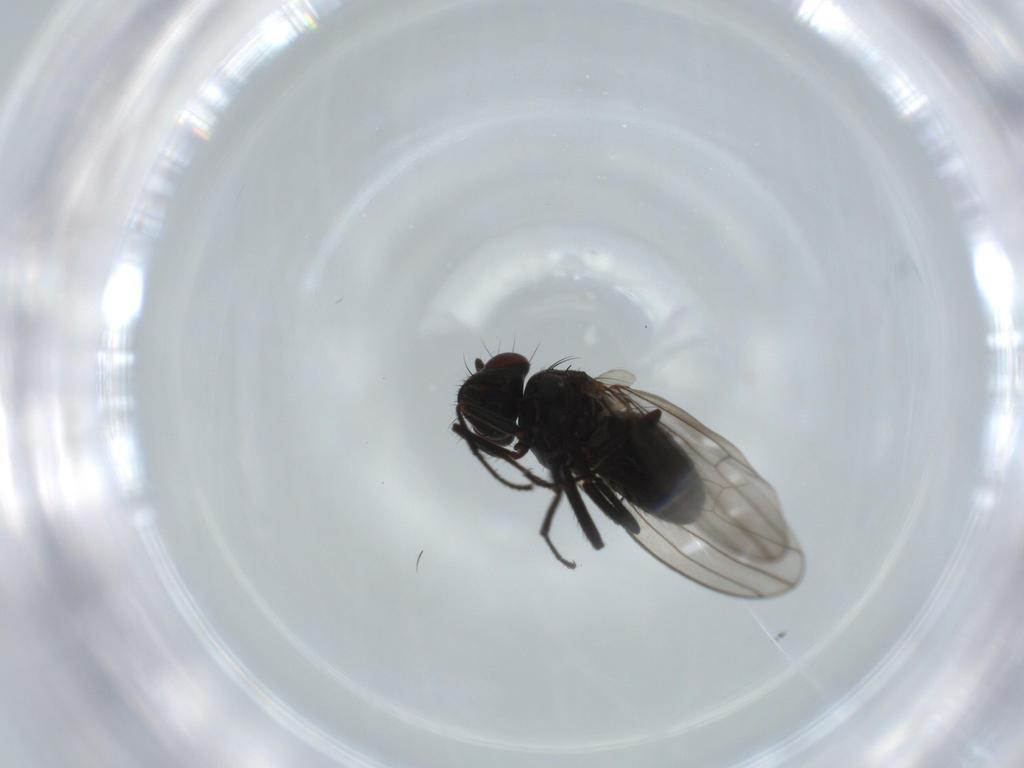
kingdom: Animalia
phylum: Arthropoda
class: Insecta
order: Diptera
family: Ephydridae
